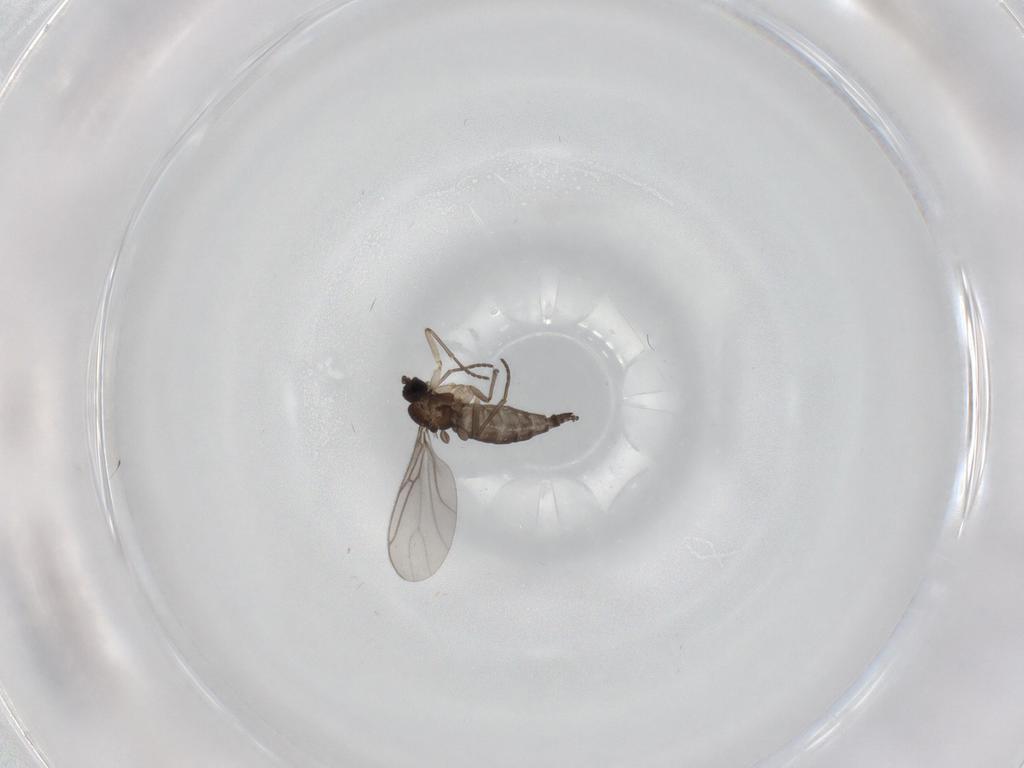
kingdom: Animalia
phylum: Arthropoda
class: Insecta
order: Diptera
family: Sciaridae
